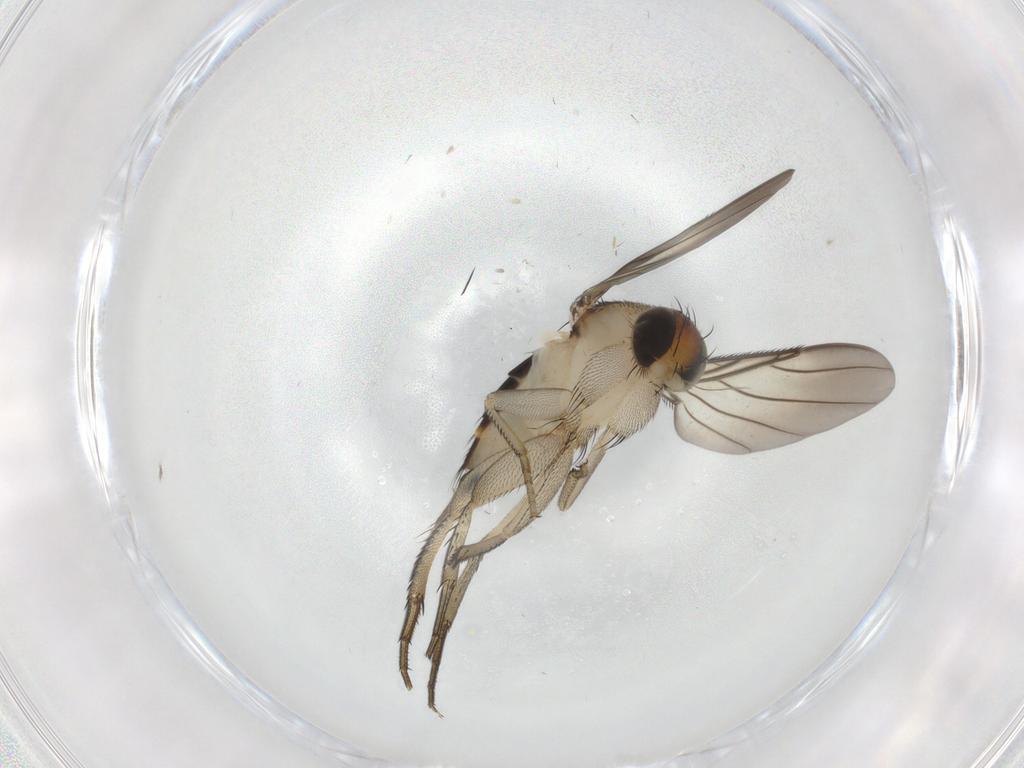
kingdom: Animalia
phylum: Arthropoda
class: Insecta
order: Diptera
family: Phoridae
